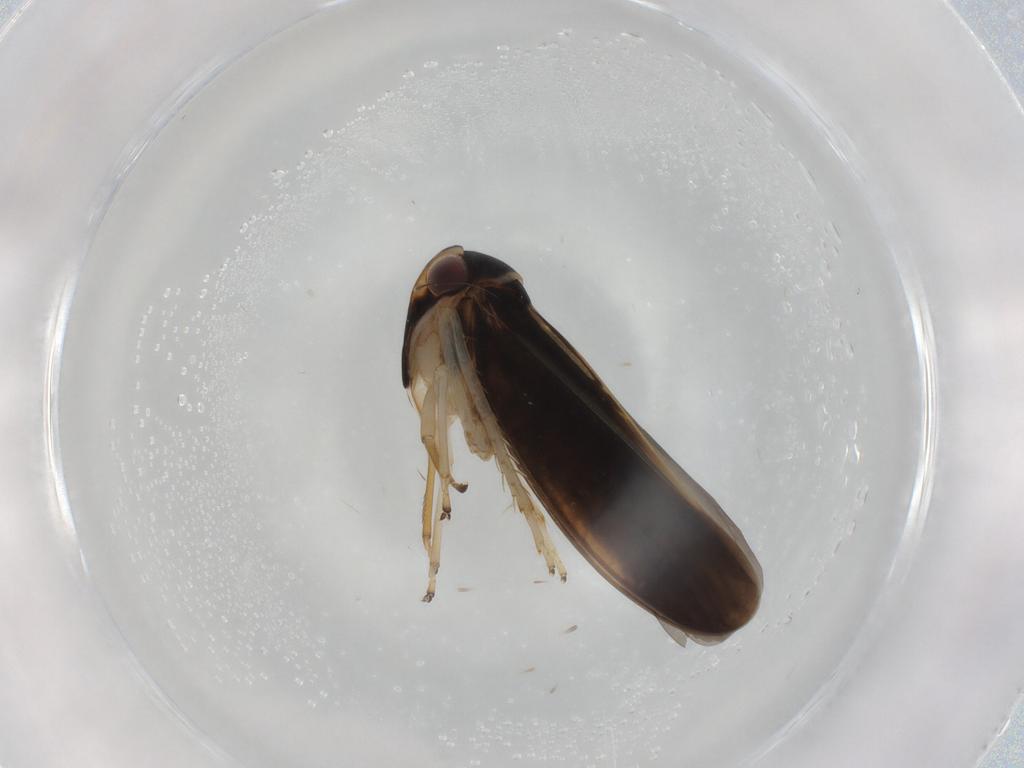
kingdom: Animalia
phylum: Arthropoda
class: Insecta
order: Hemiptera
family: Cicadellidae
